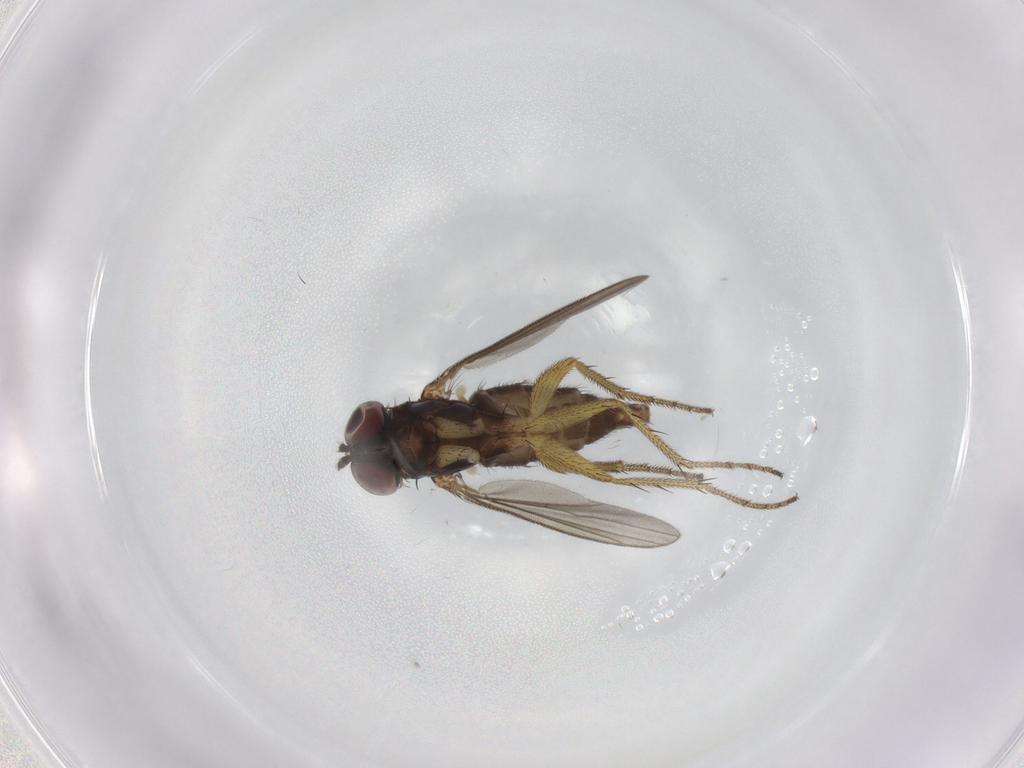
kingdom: Animalia
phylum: Arthropoda
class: Insecta
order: Diptera
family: Dolichopodidae
